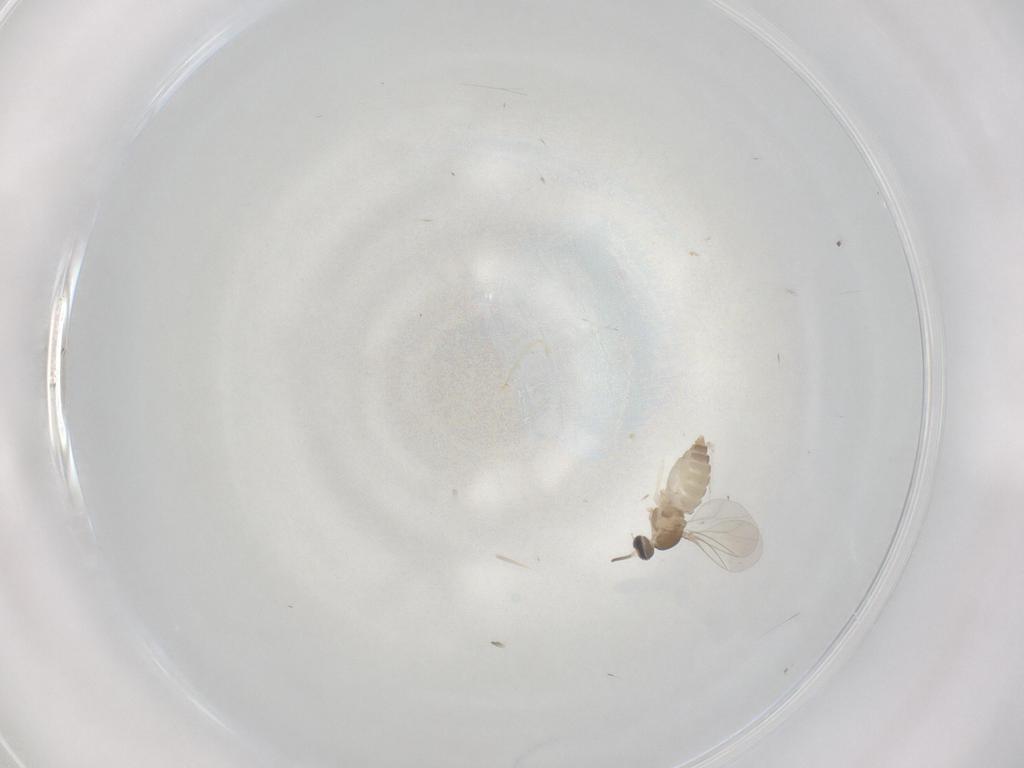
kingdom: Animalia
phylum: Arthropoda
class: Insecta
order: Diptera
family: Cecidomyiidae
